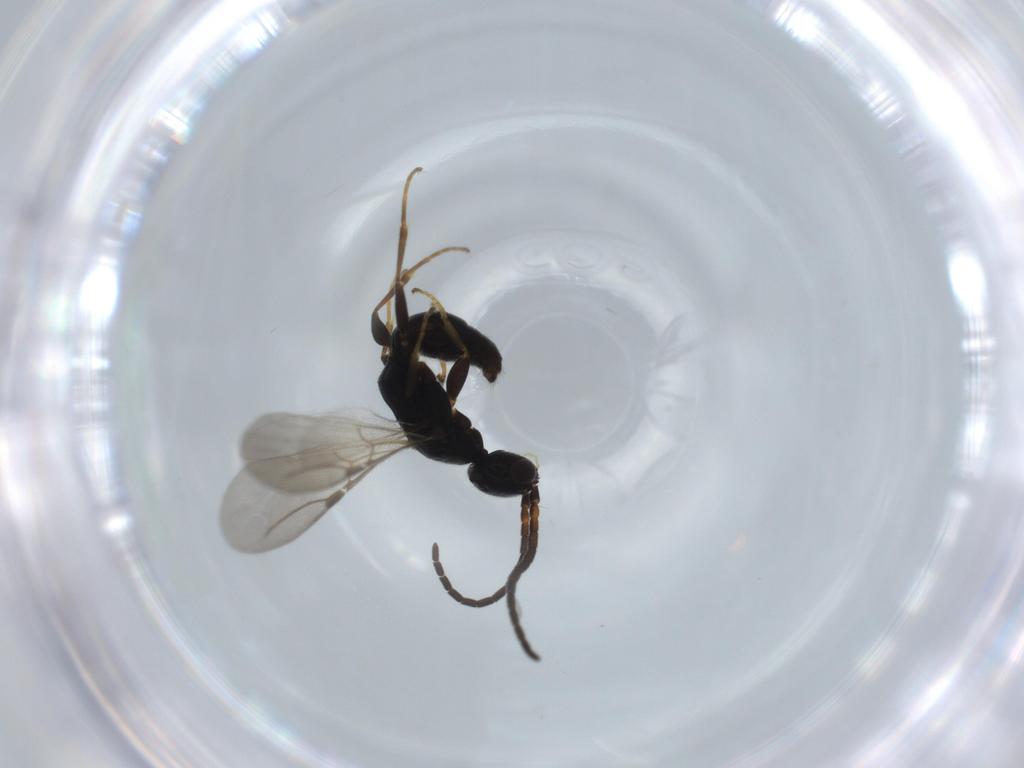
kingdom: Animalia
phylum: Arthropoda
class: Insecta
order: Hymenoptera
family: Bethylidae
